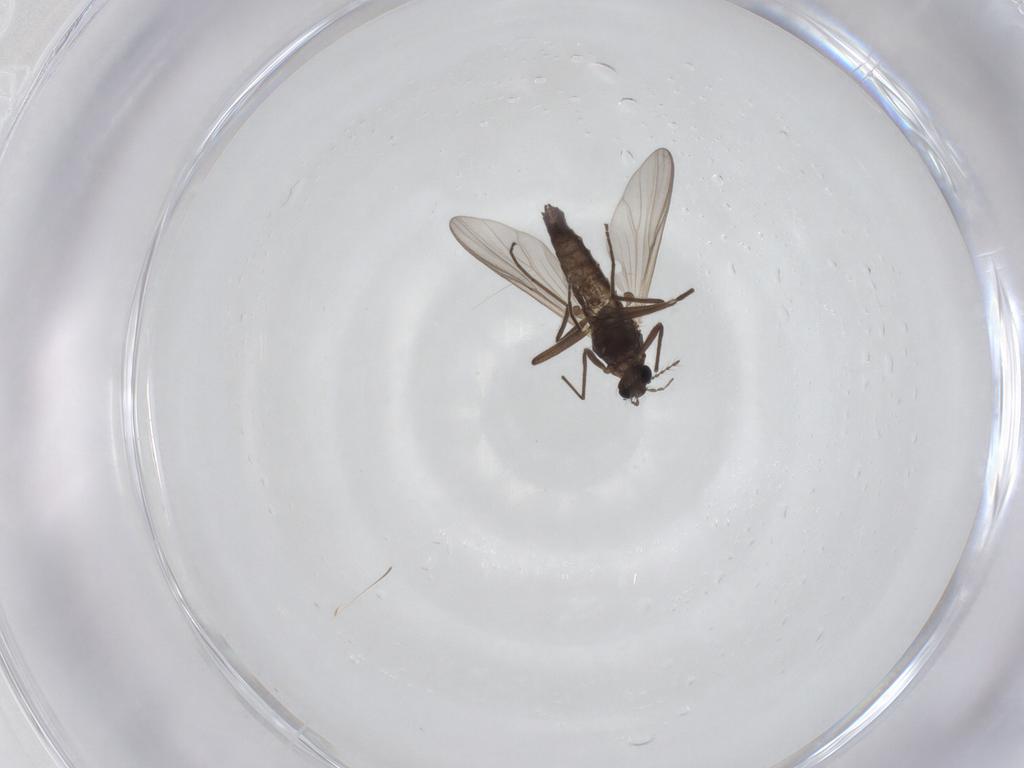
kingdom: Animalia
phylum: Arthropoda
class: Insecta
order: Diptera
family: Chironomidae
